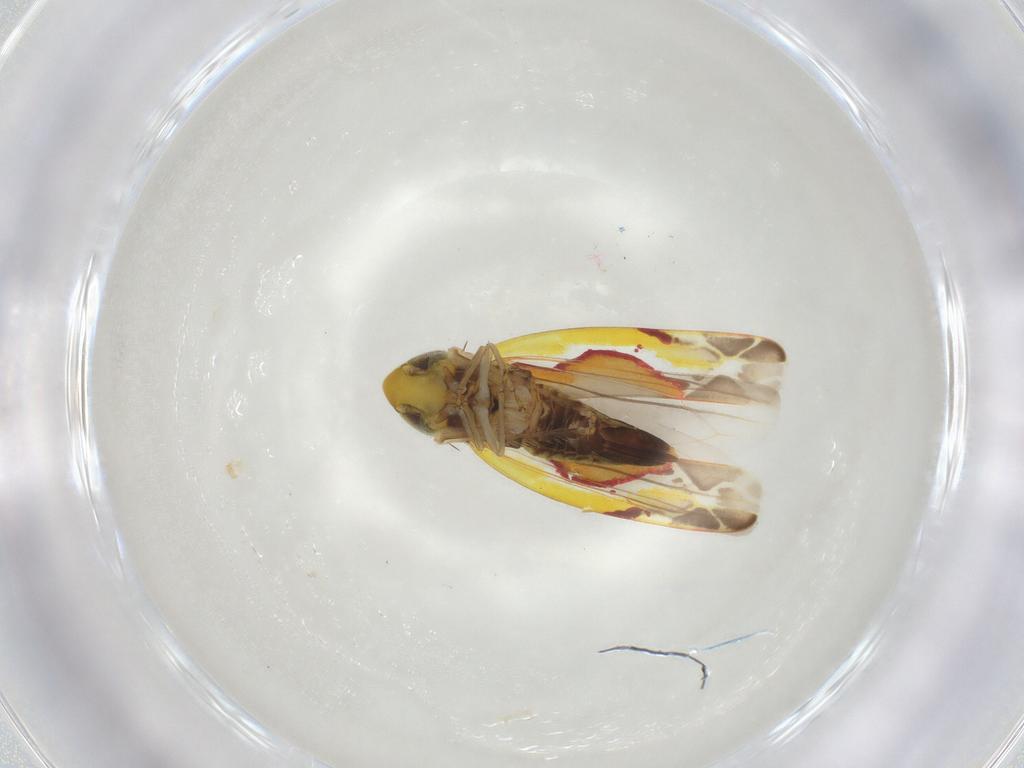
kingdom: Animalia
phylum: Arthropoda
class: Insecta
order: Hemiptera
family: Cicadellidae
